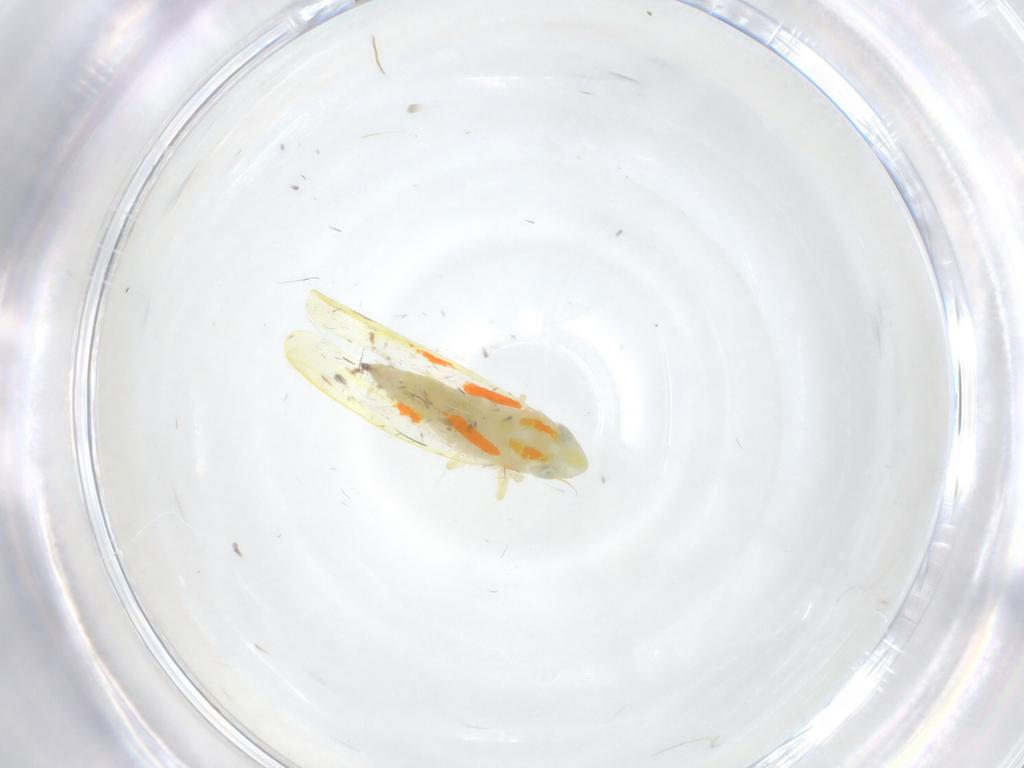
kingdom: Animalia
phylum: Arthropoda
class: Insecta
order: Hemiptera
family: Cicadellidae
